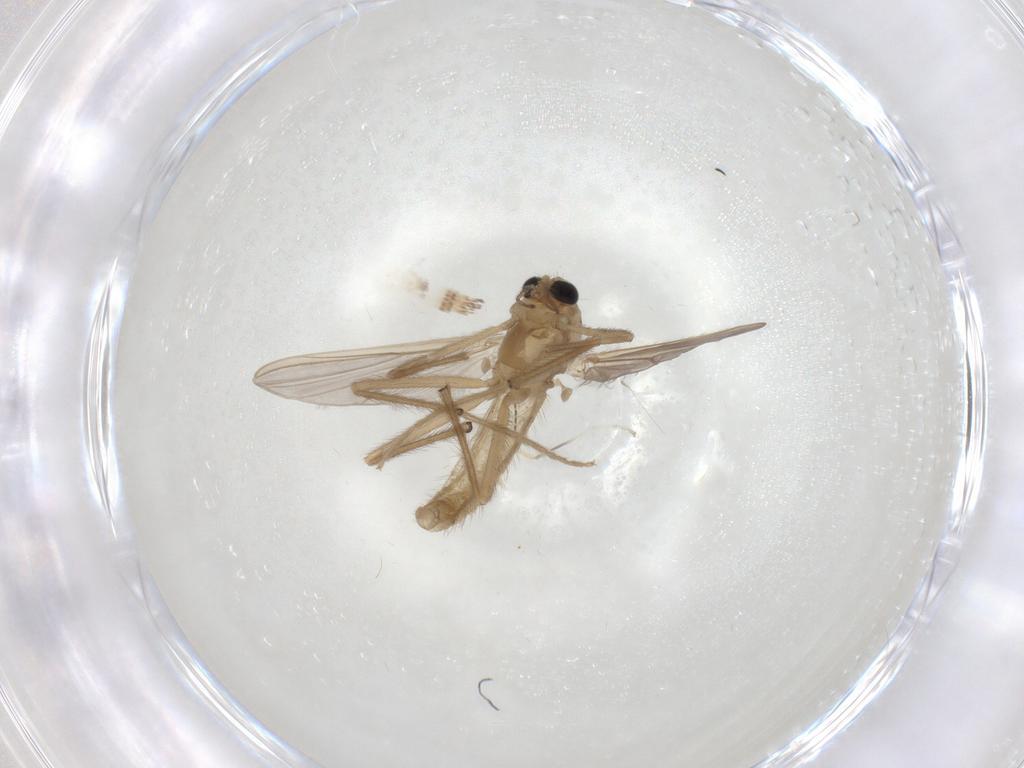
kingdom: Animalia
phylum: Arthropoda
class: Insecta
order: Diptera
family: Chironomidae
